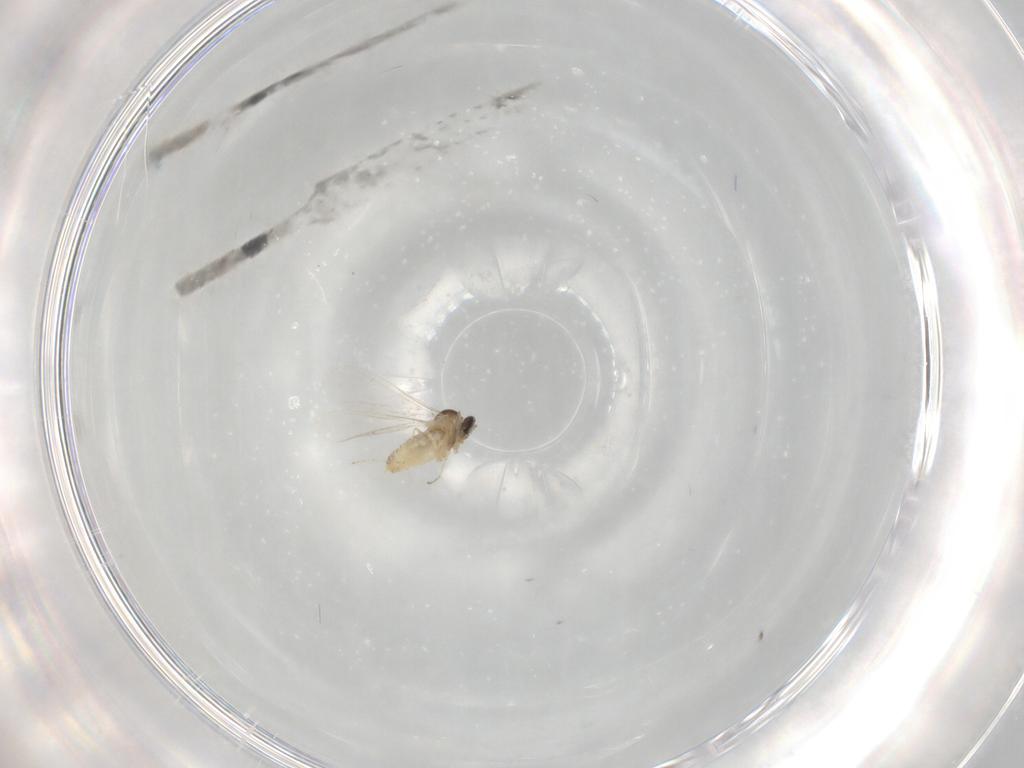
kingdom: Animalia
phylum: Arthropoda
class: Insecta
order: Diptera
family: Cecidomyiidae
